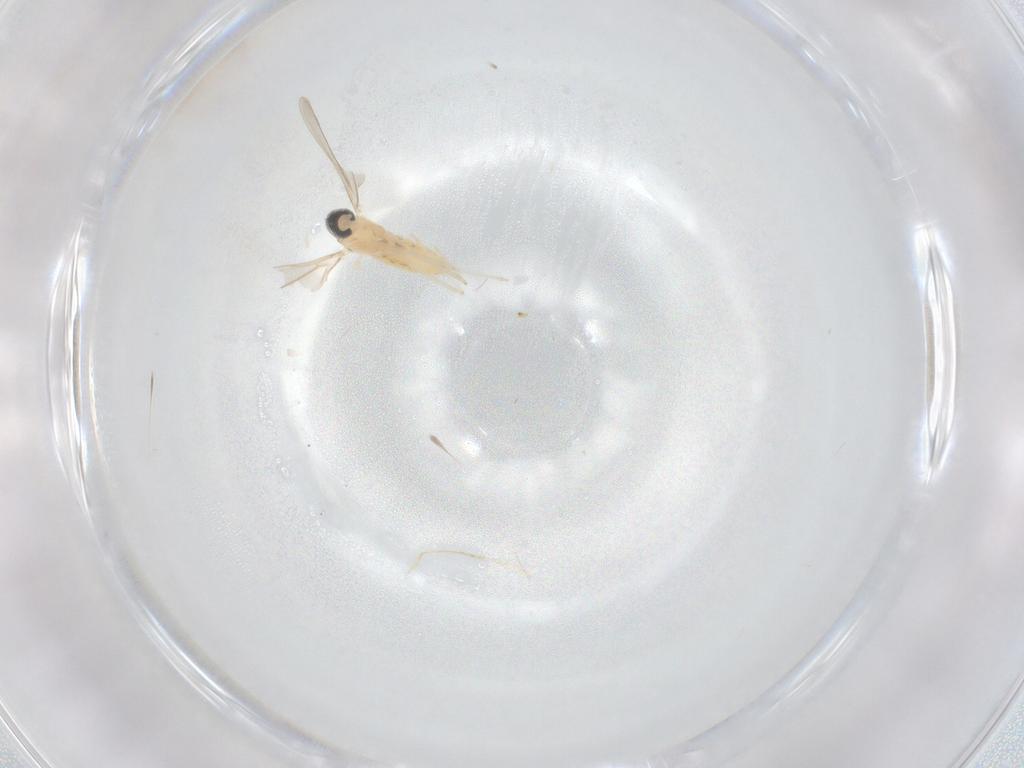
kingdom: Animalia
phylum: Arthropoda
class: Insecta
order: Diptera
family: Cecidomyiidae
